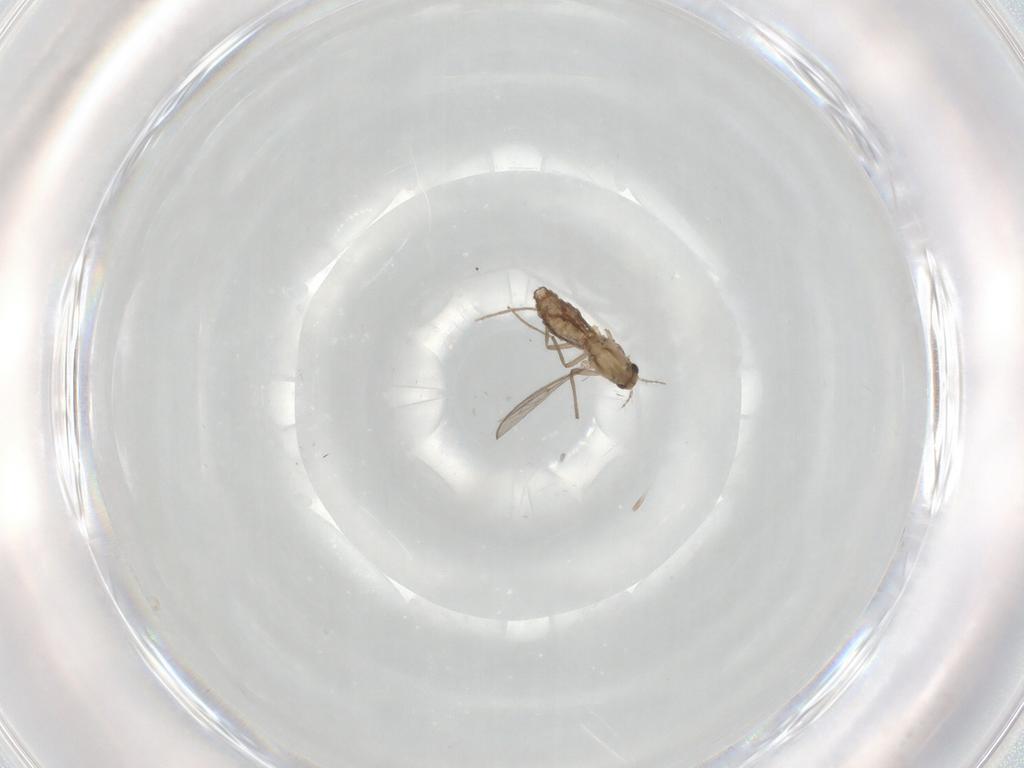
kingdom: Animalia
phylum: Arthropoda
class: Insecta
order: Diptera
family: Chironomidae
